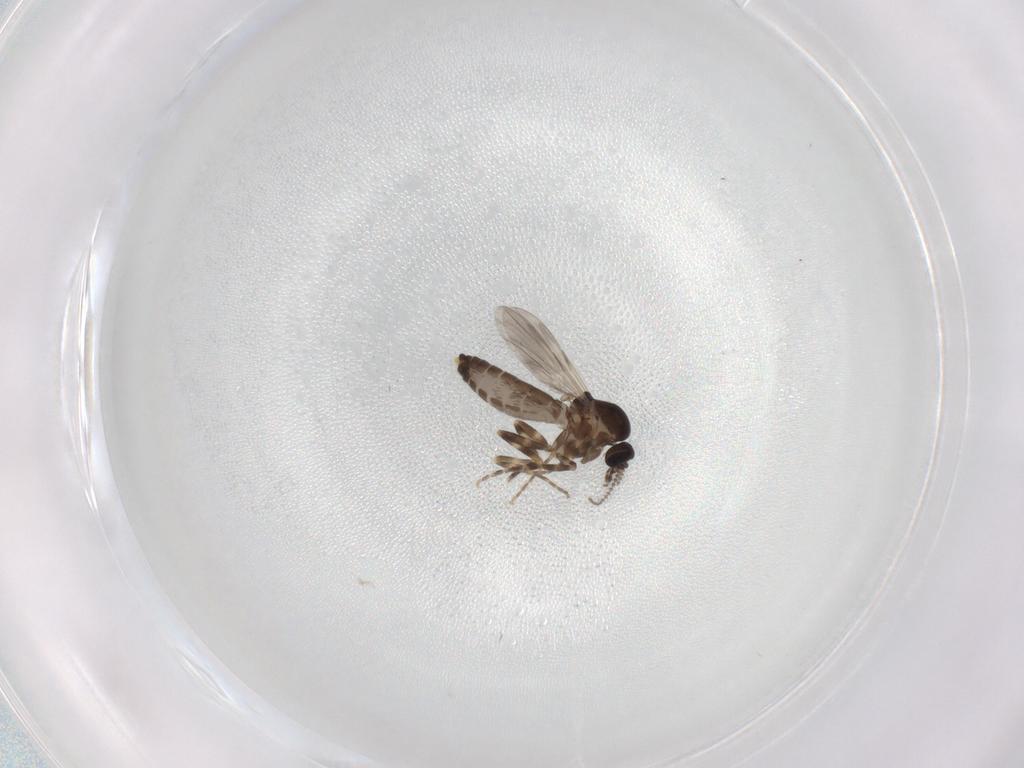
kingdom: Animalia
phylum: Arthropoda
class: Insecta
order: Diptera
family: Ceratopogonidae
